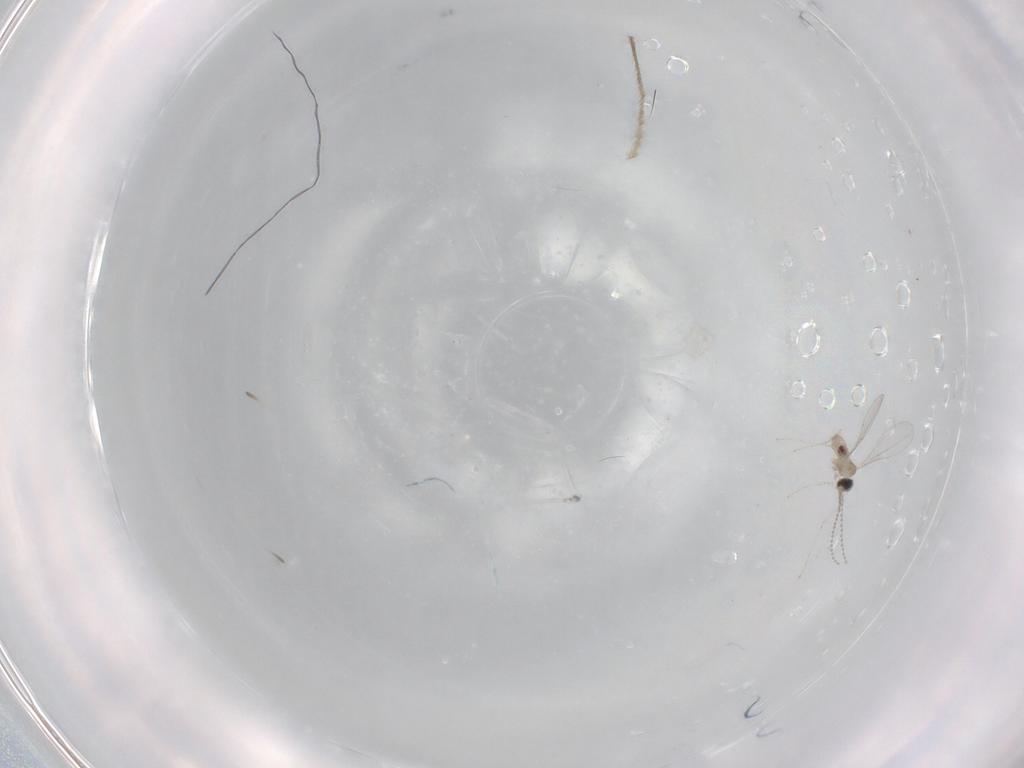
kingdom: Animalia
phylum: Arthropoda
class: Insecta
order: Diptera
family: Cecidomyiidae
